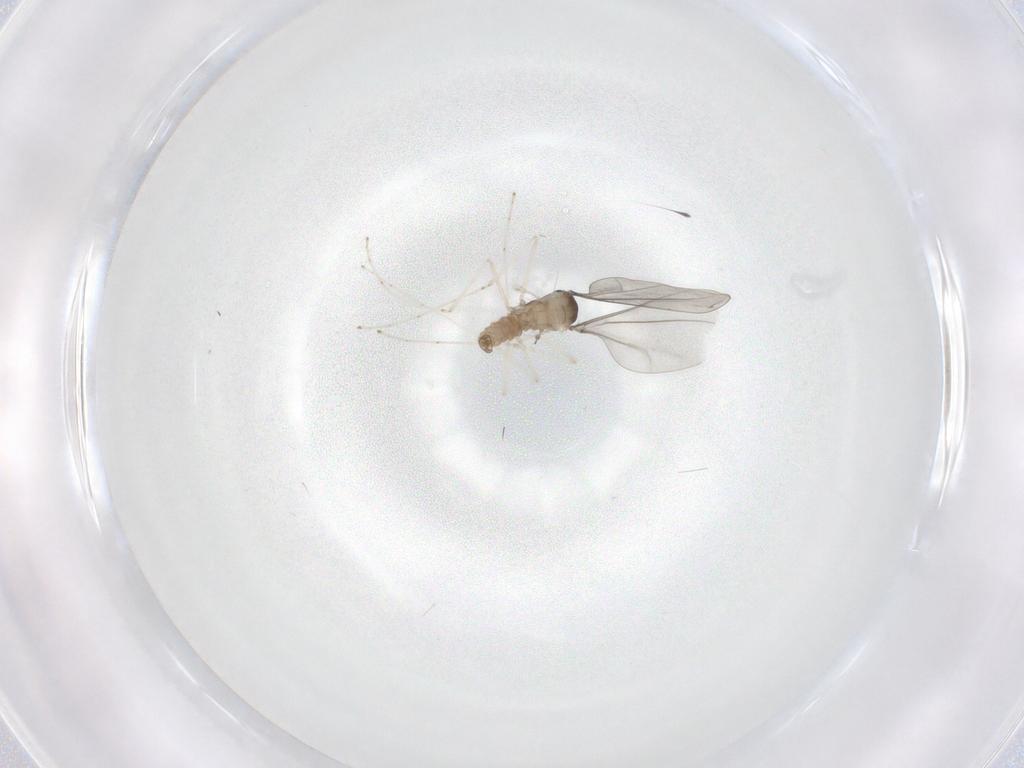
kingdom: Animalia
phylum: Arthropoda
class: Insecta
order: Diptera
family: Sciaridae
